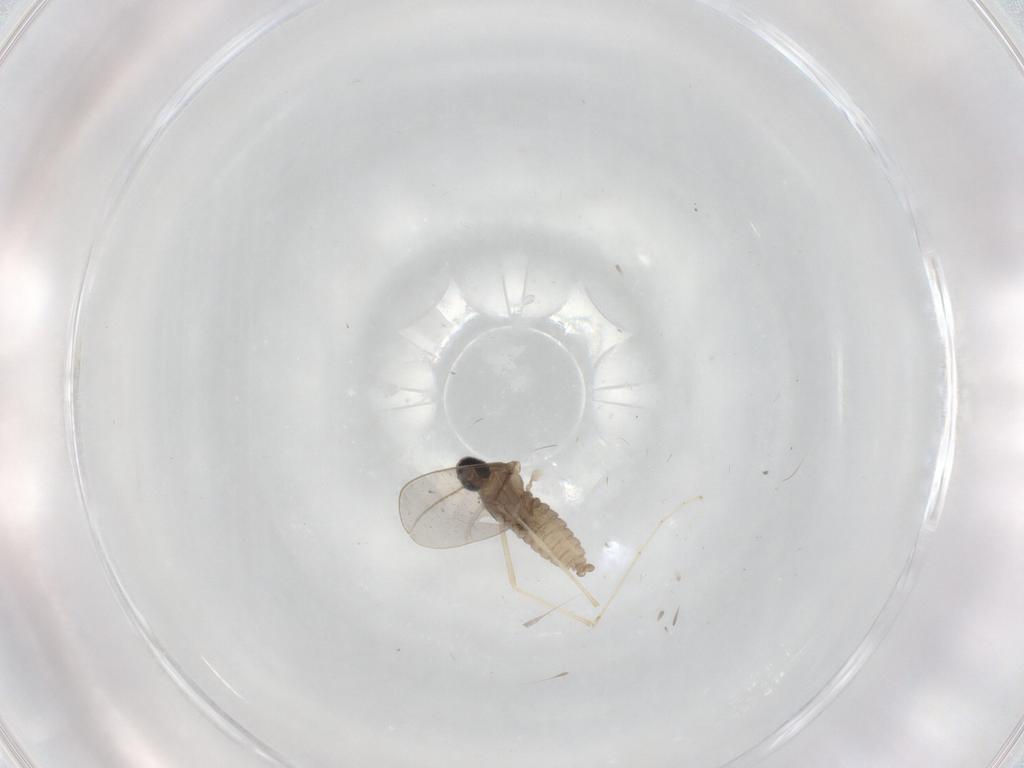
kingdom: Animalia
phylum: Arthropoda
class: Insecta
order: Diptera
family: Cecidomyiidae
